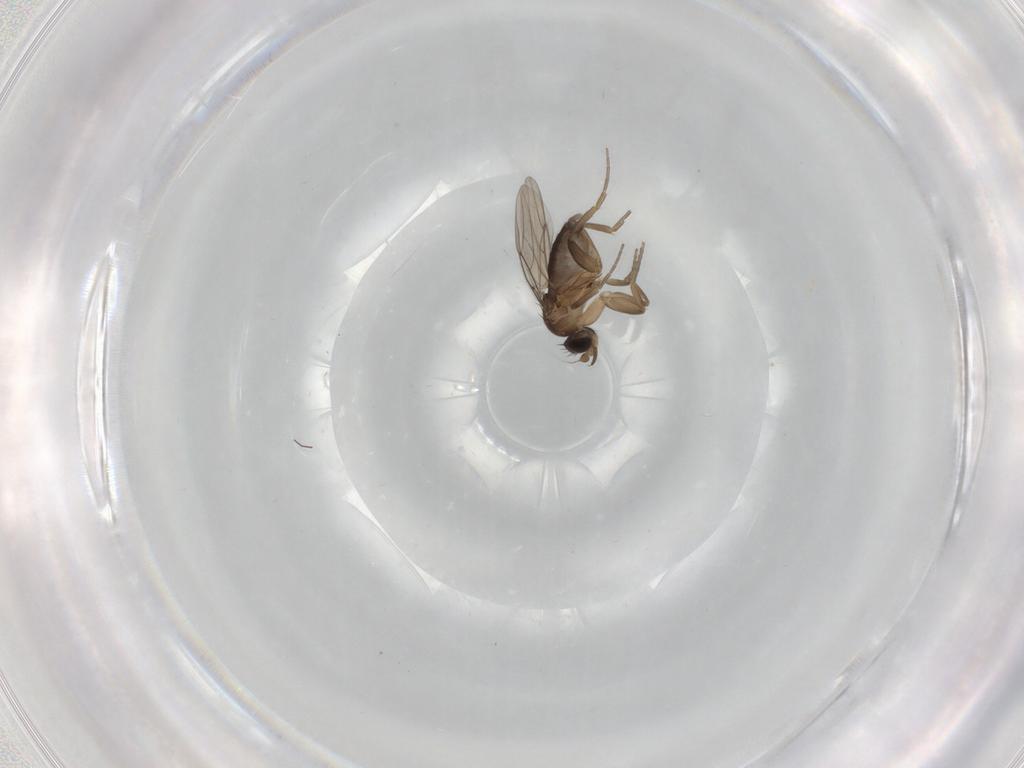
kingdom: Animalia
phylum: Arthropoda
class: Insecta
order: Diptera
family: Phoridae
